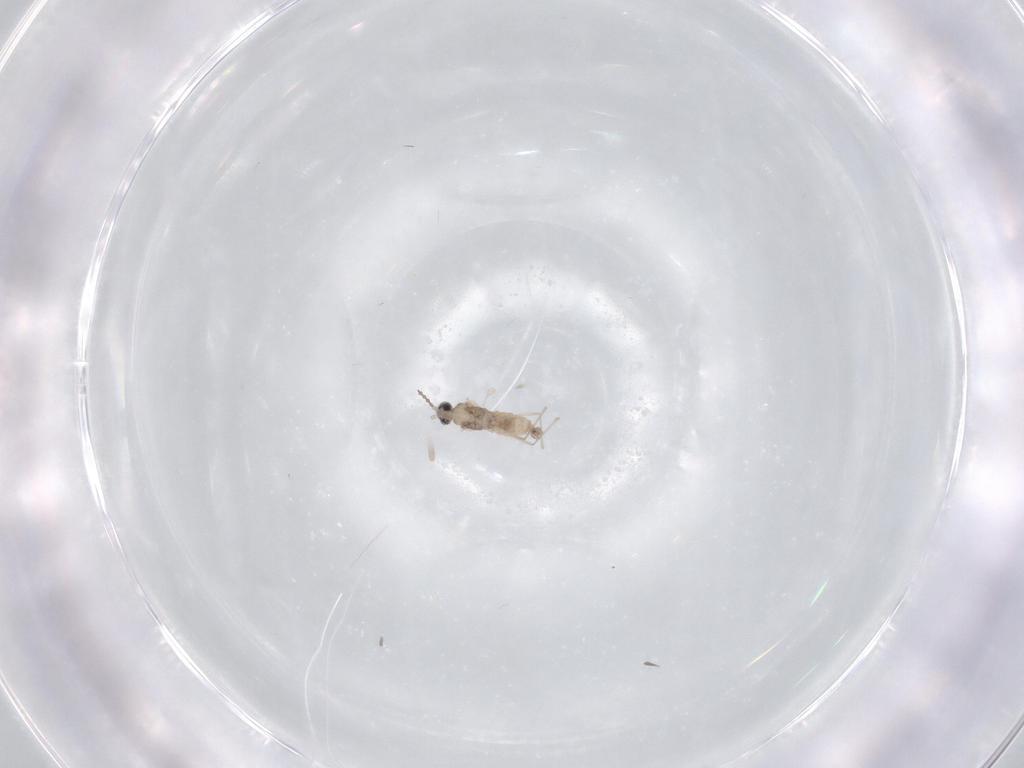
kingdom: Animalia
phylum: Arthropoda
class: Insecta
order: Diptera
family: Cecidomyiidae
